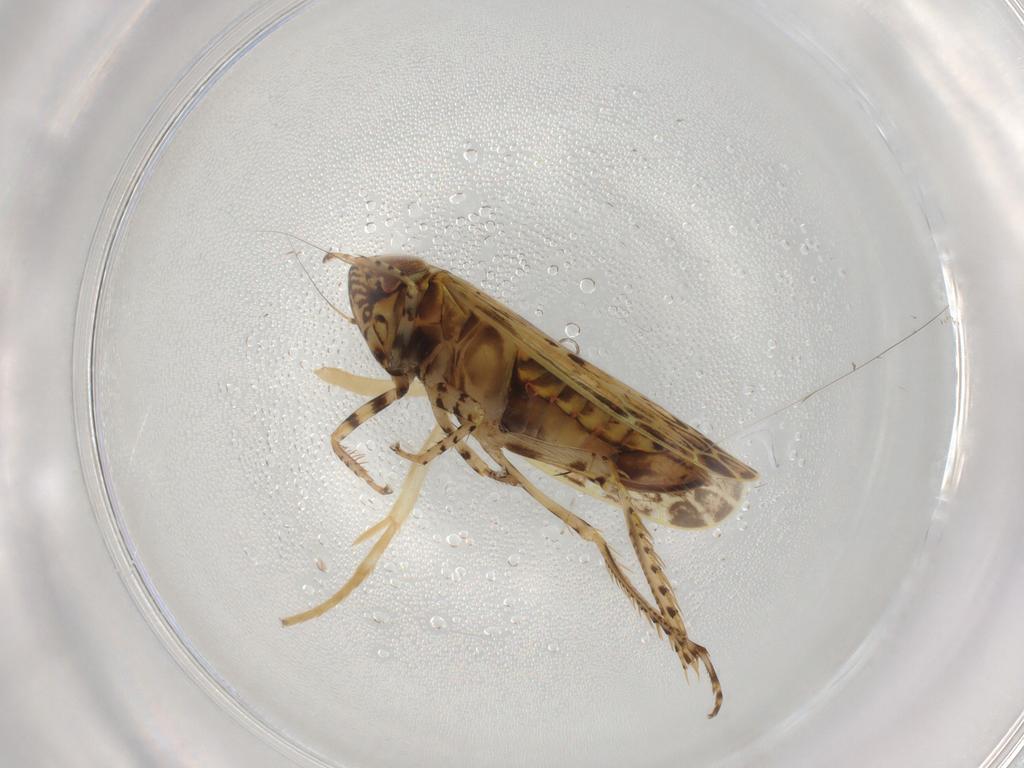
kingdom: Animalia
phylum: Arthropoda
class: Insecta
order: Hemiptera
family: Cicadellidae
